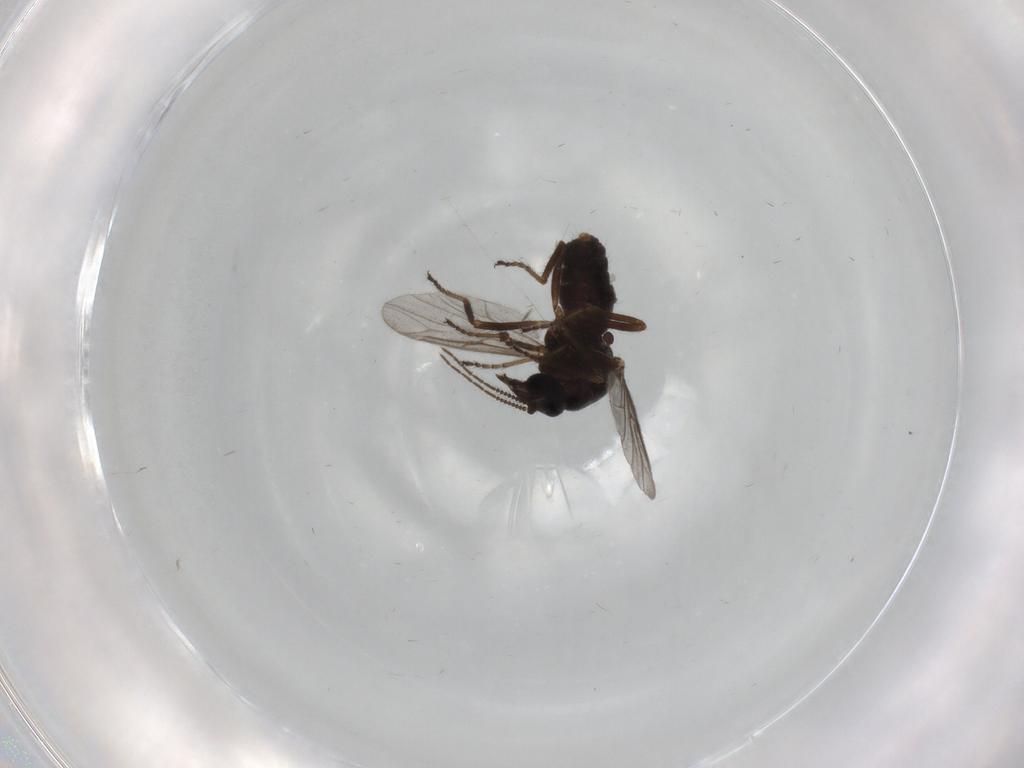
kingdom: Animalia
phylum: Arthropoda
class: Insecta
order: Diptera
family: Ceratopogonidae
